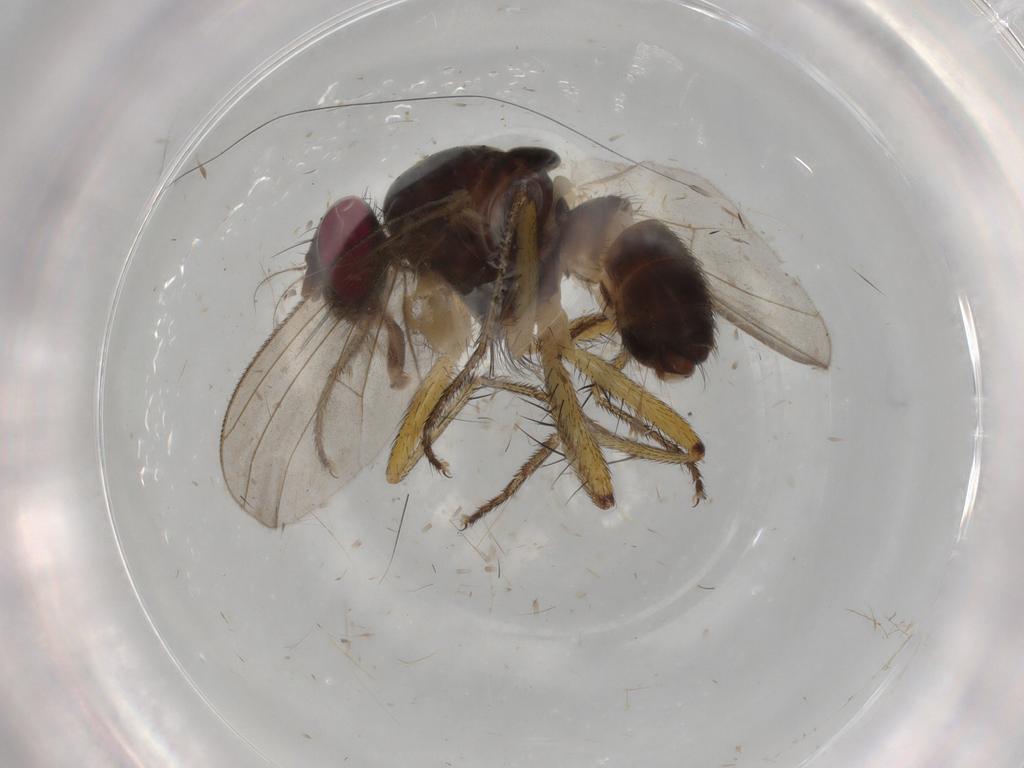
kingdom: Animalia
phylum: Arthropoda
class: Insecta
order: Diptera
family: Muscidae
